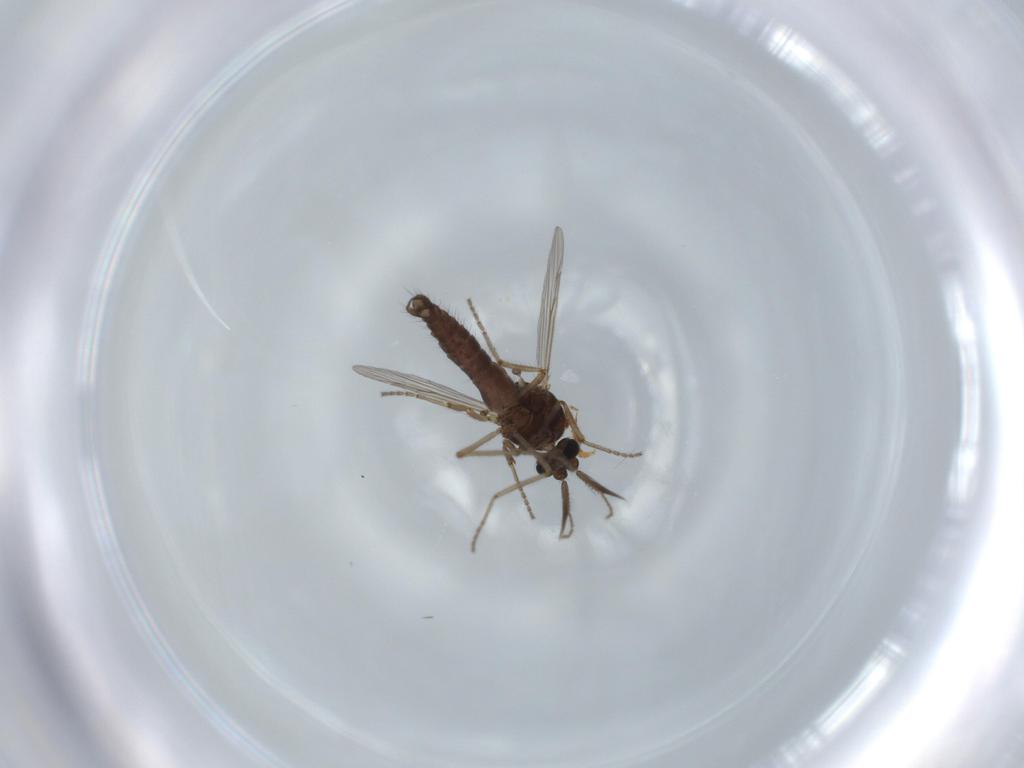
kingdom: Animalia
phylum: Arthropoda
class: Insecta
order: Diptera
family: Ceratopogonidae
